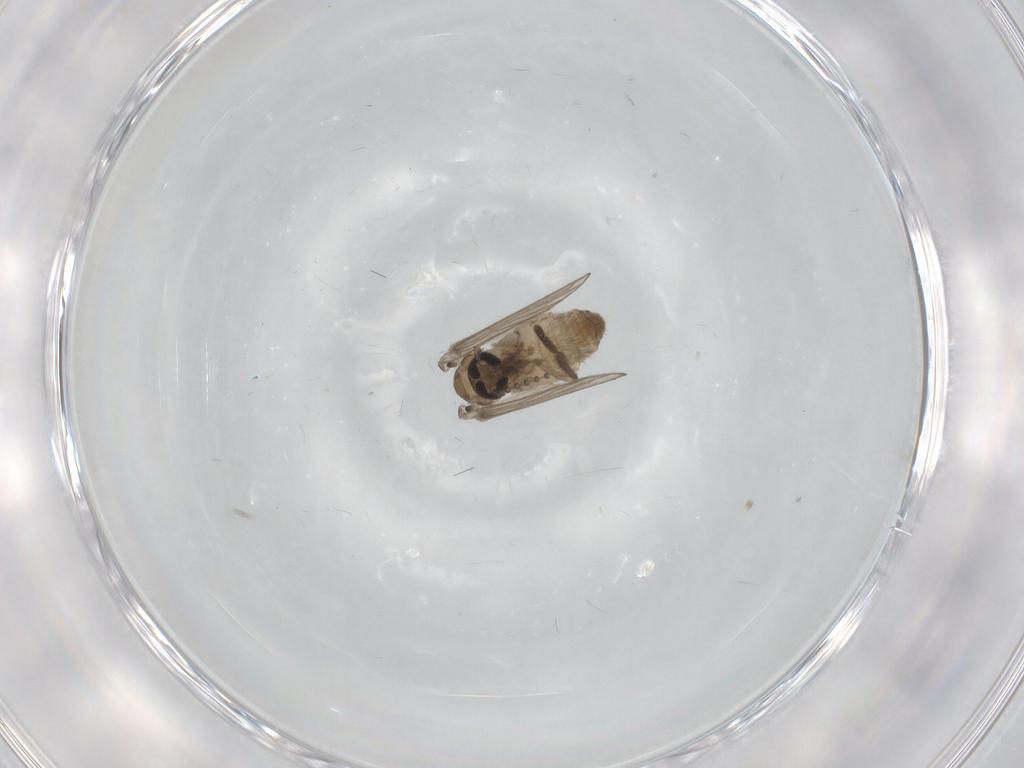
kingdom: Animalia
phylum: Arthropoda
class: Insecta
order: Diptera
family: Psychodidae
